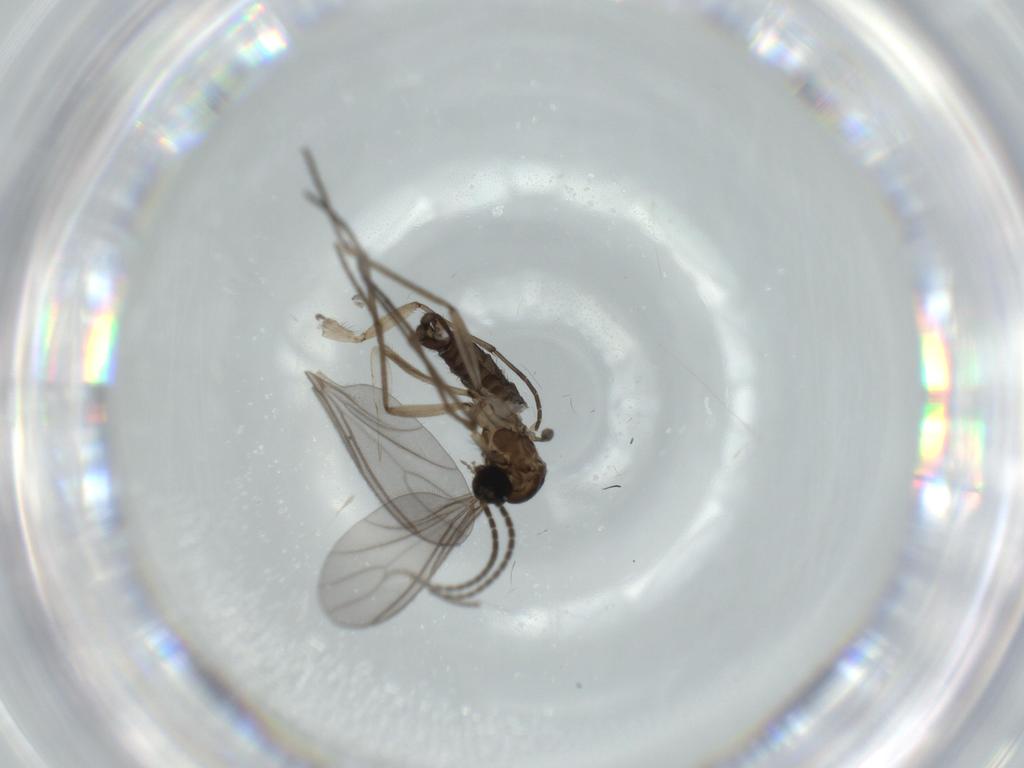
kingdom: Animalia
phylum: Arthropoda
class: Insecta
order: Diptera
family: Sciaridae
